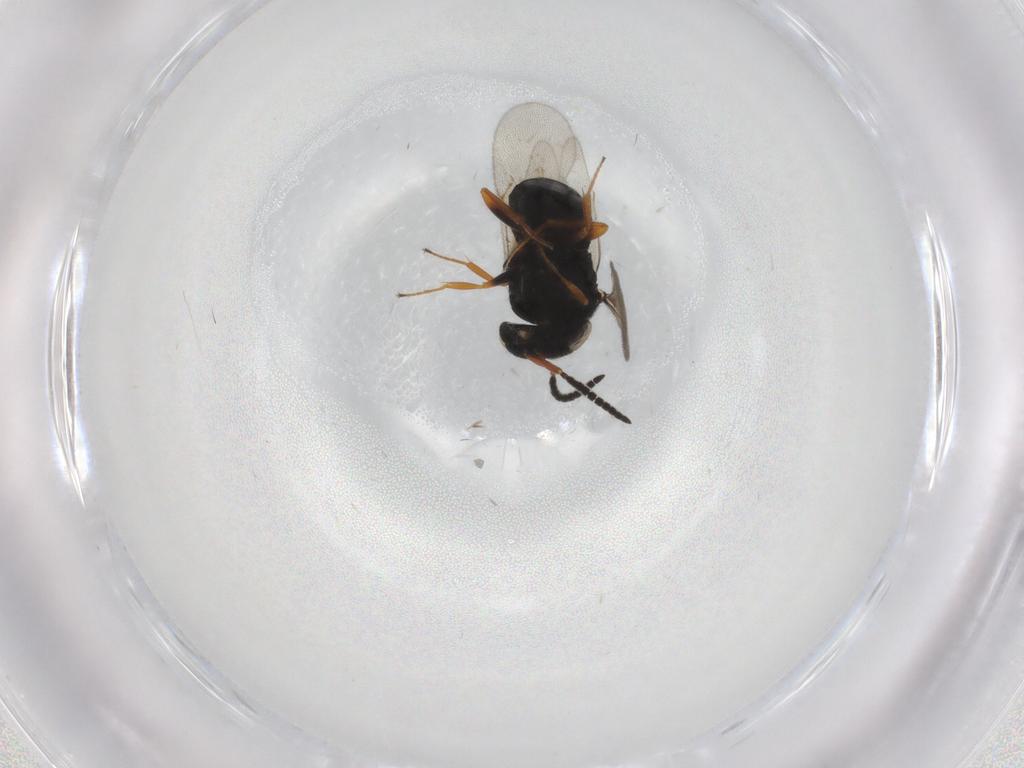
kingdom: Animalia
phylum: Arthropoda
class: Insecta
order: Hymenoptera
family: Scelionidae
